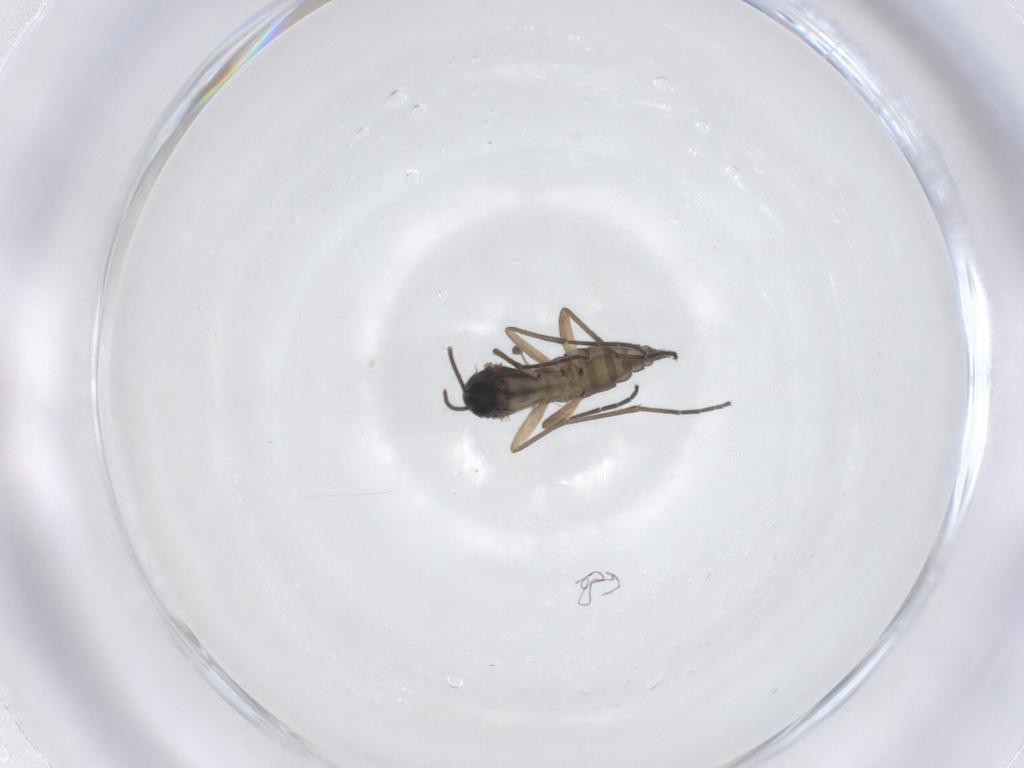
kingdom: Animalia
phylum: Arthropoda
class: Insecta
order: Diptera
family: Sciaridae
